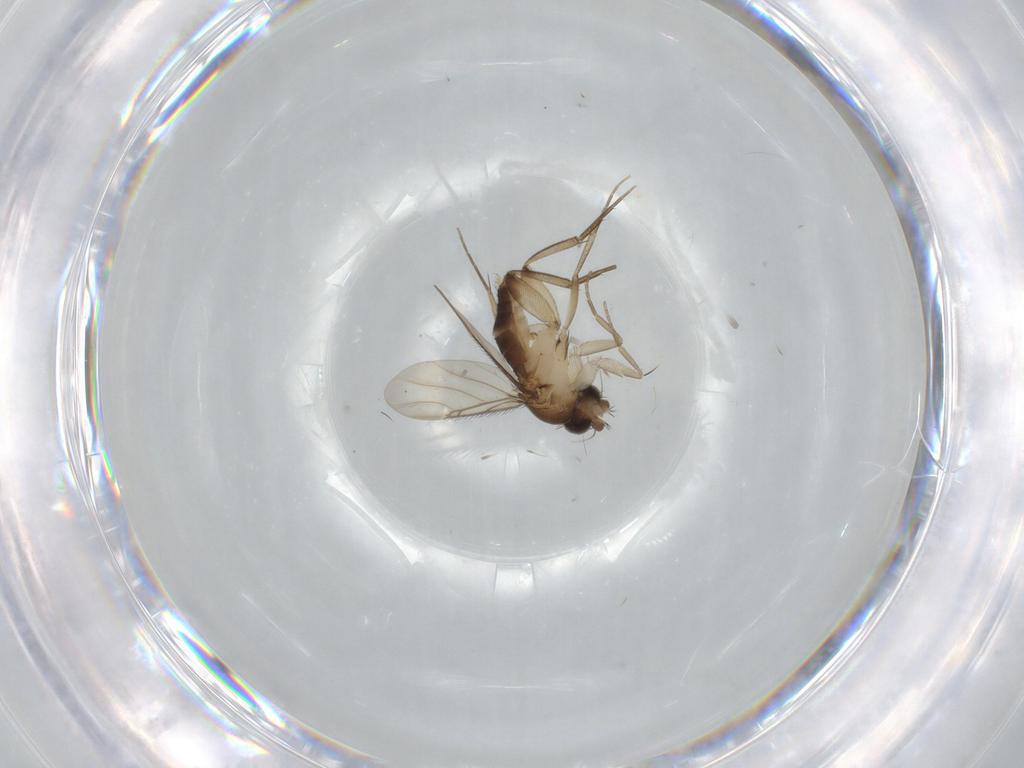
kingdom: Animalia
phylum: Arthropoda
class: Insecta
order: Diptera
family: Phoridae
